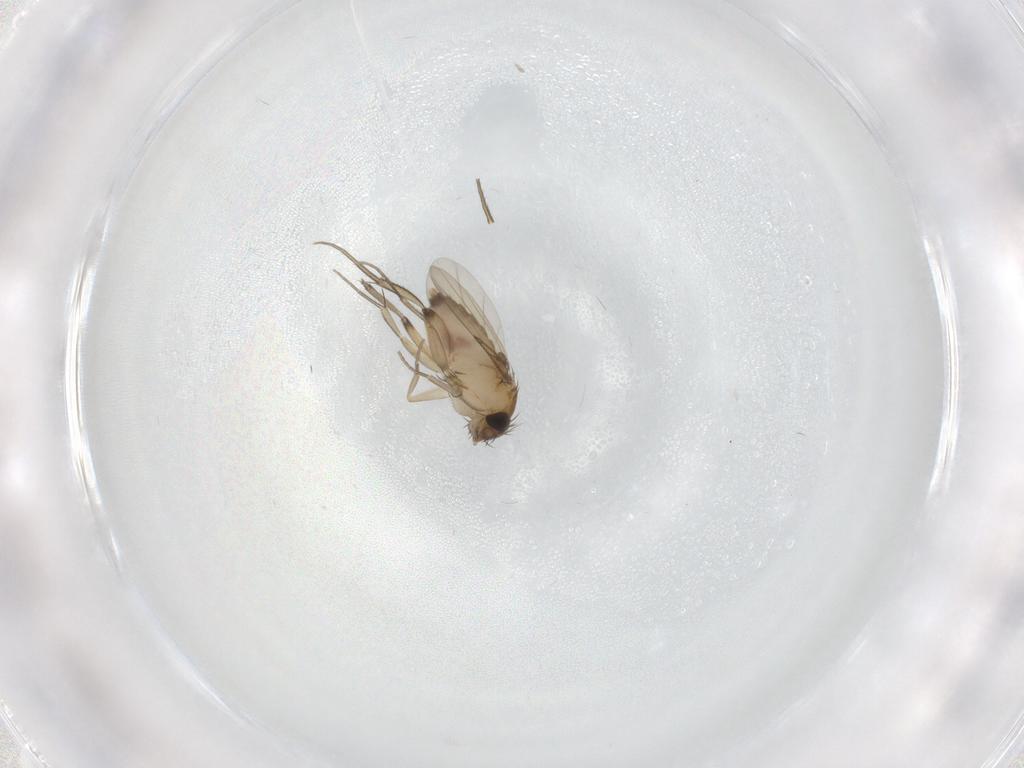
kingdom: Animalia
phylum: Arthropoda
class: Insecta
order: Diptera
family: Phoridae
